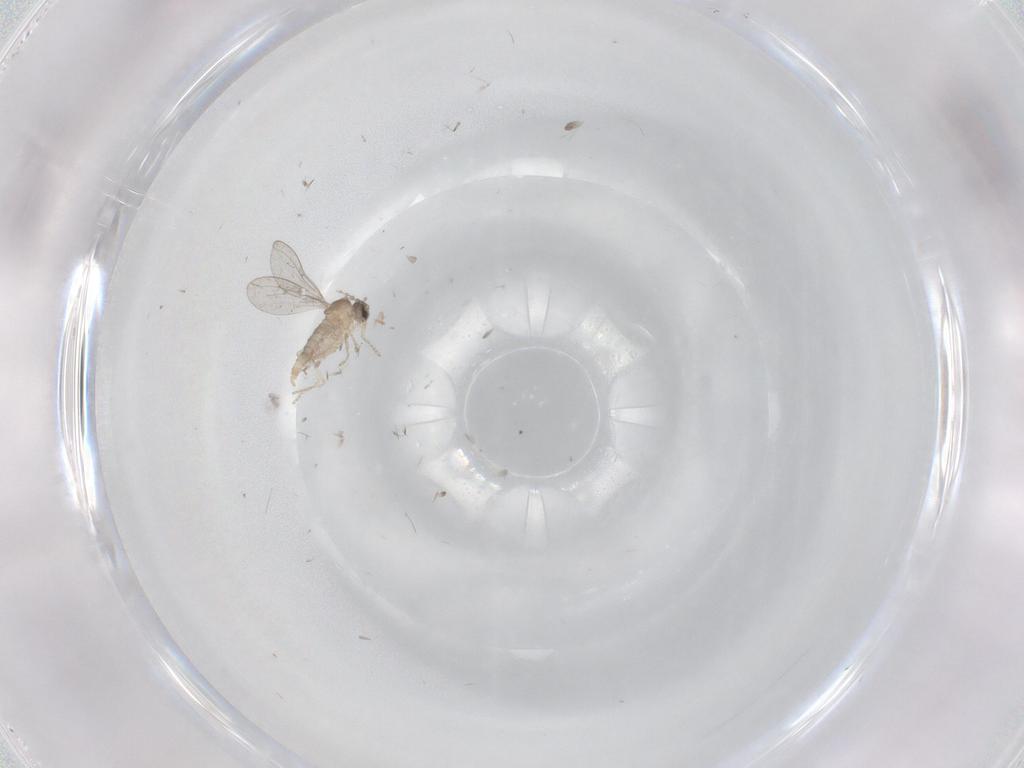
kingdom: Animalia
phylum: Arthropoda
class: Insecta
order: Diptera
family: Cecidomyiidae
